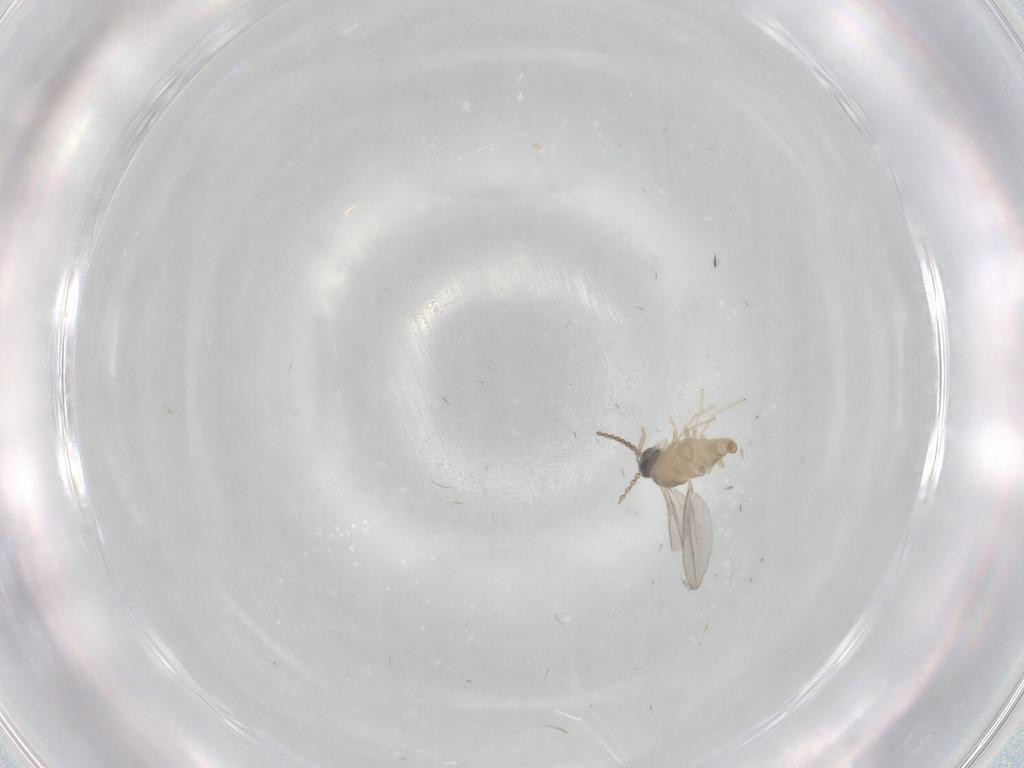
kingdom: Animalia
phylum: Arthropoda
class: Insecta
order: Diptera
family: Cecidomyiidae
